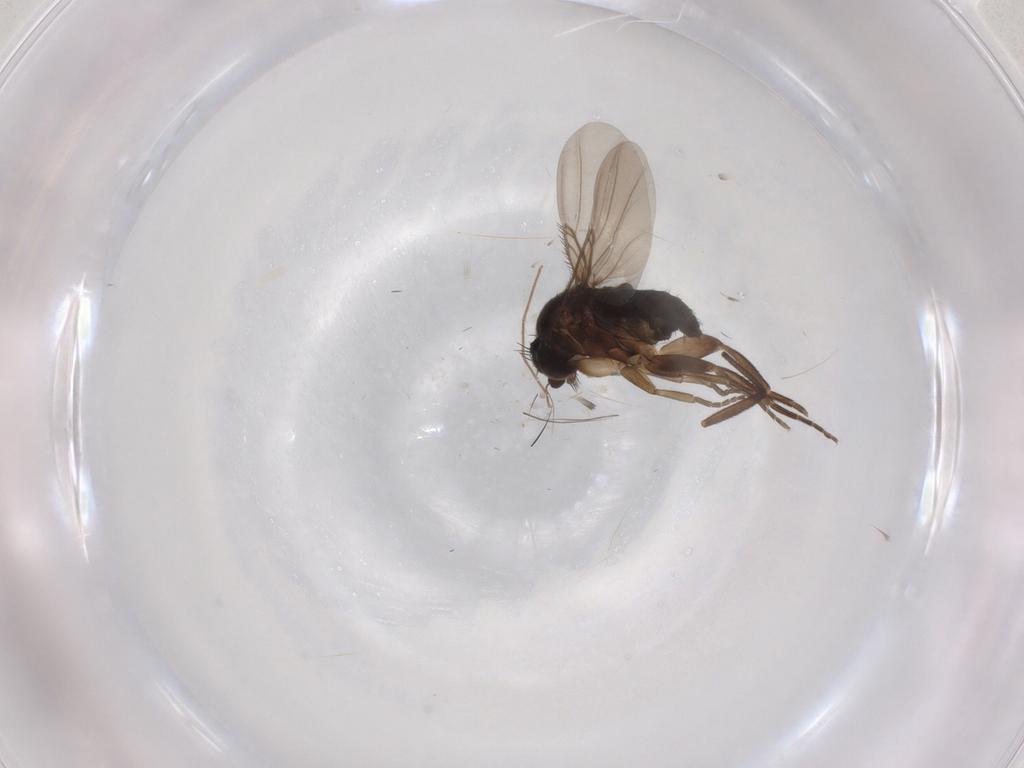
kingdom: Animalia
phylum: Arthropoda
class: Insecta
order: Diptera
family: Phoridae
